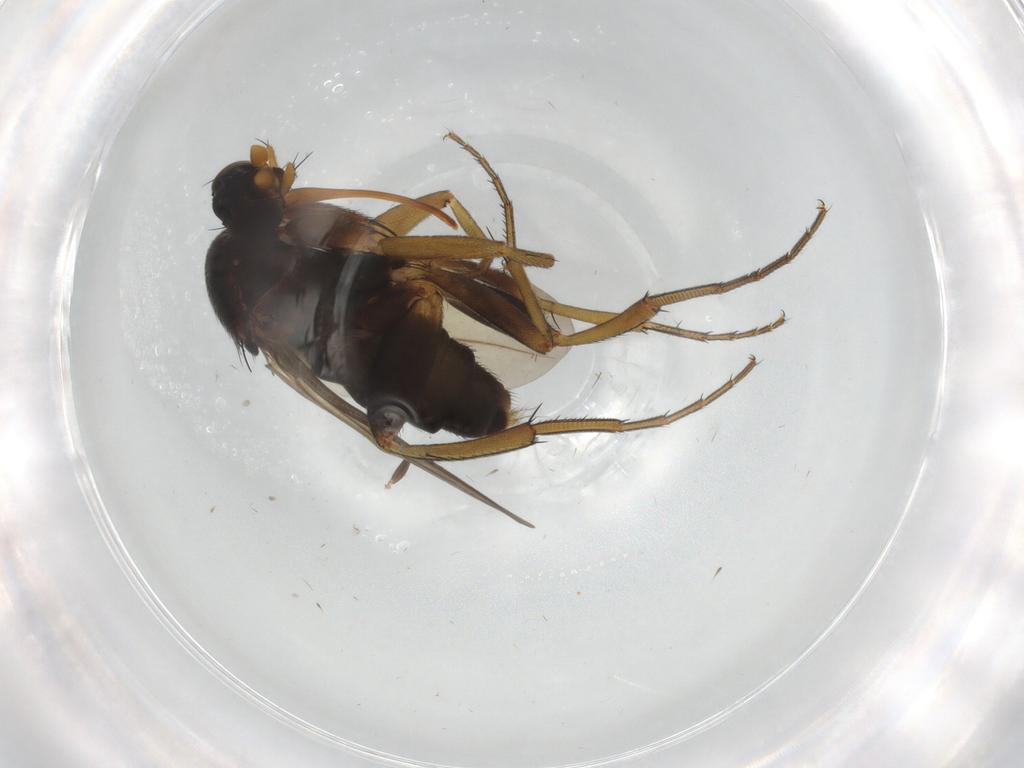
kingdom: Animalia
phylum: Arthropoda
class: Insecta
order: Diptera
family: Phoridae
